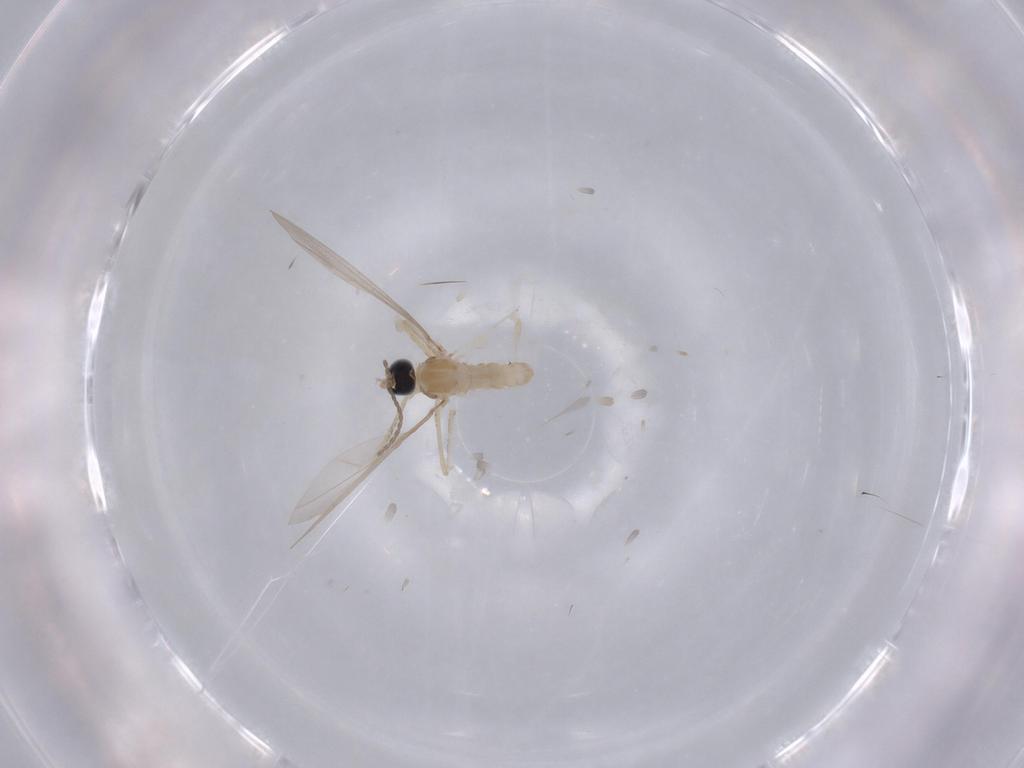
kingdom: Animalia
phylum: Arthropoda
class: Insecta
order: Diptera
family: Cecidomyiidae
